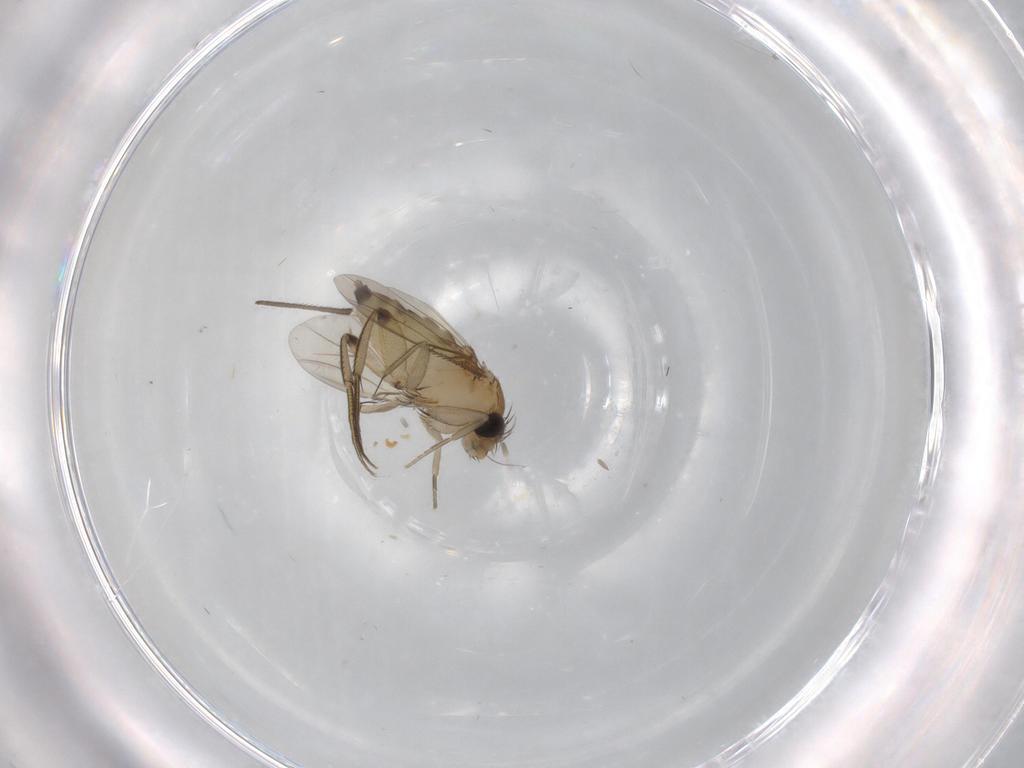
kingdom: Animalia
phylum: Arthropoda
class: Insecta
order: Diptera
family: Phoridae
